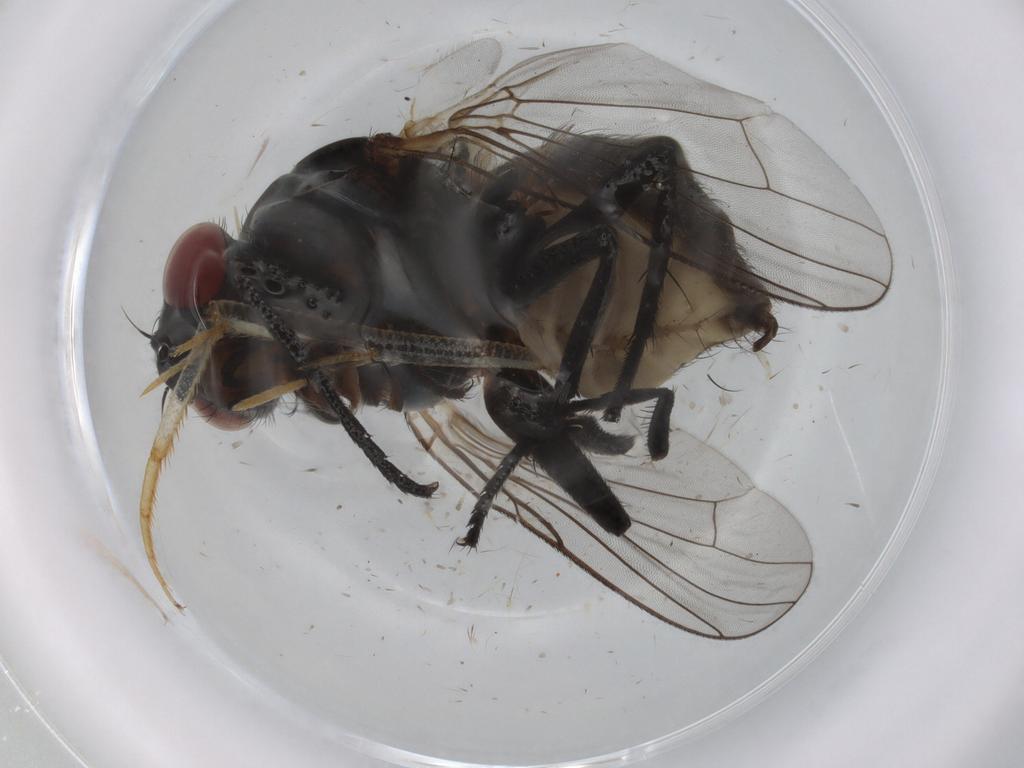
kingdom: Animalia
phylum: Arthropoda
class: Insecta
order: Diptera
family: Anthomyiidae
